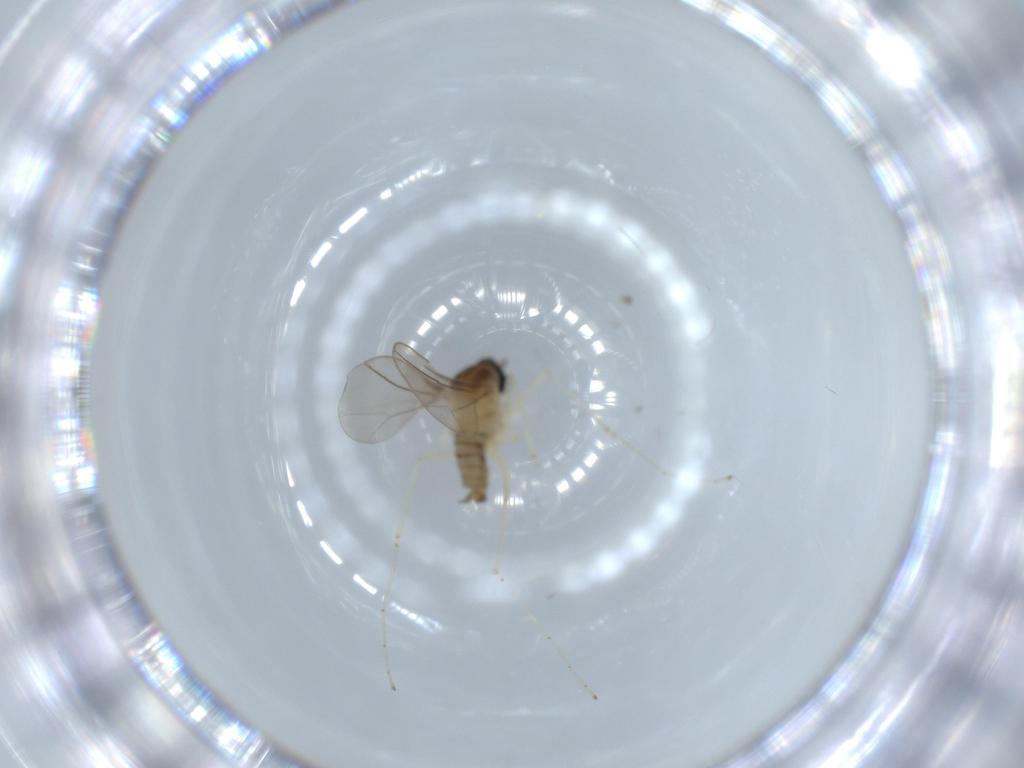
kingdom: Animalia
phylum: Arthropoda
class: Insecta
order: Diptera
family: Cecidomyiidae
